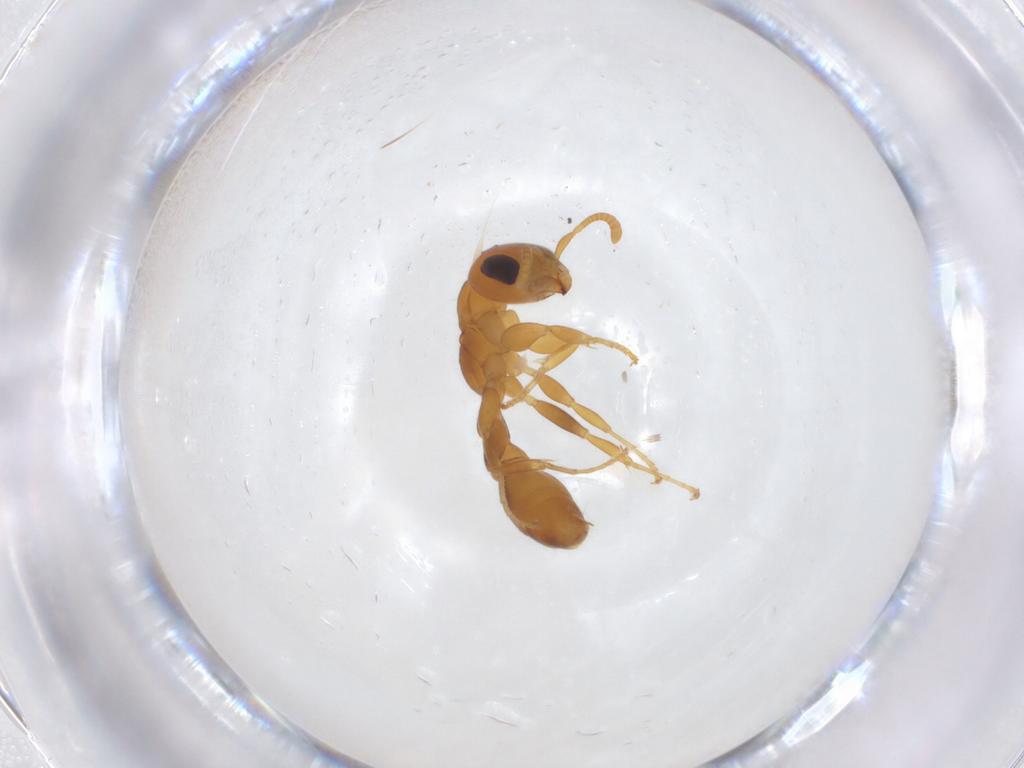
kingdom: Animalia
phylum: Arthropoda
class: Insecta
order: Hymenoptera
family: Formicidae
